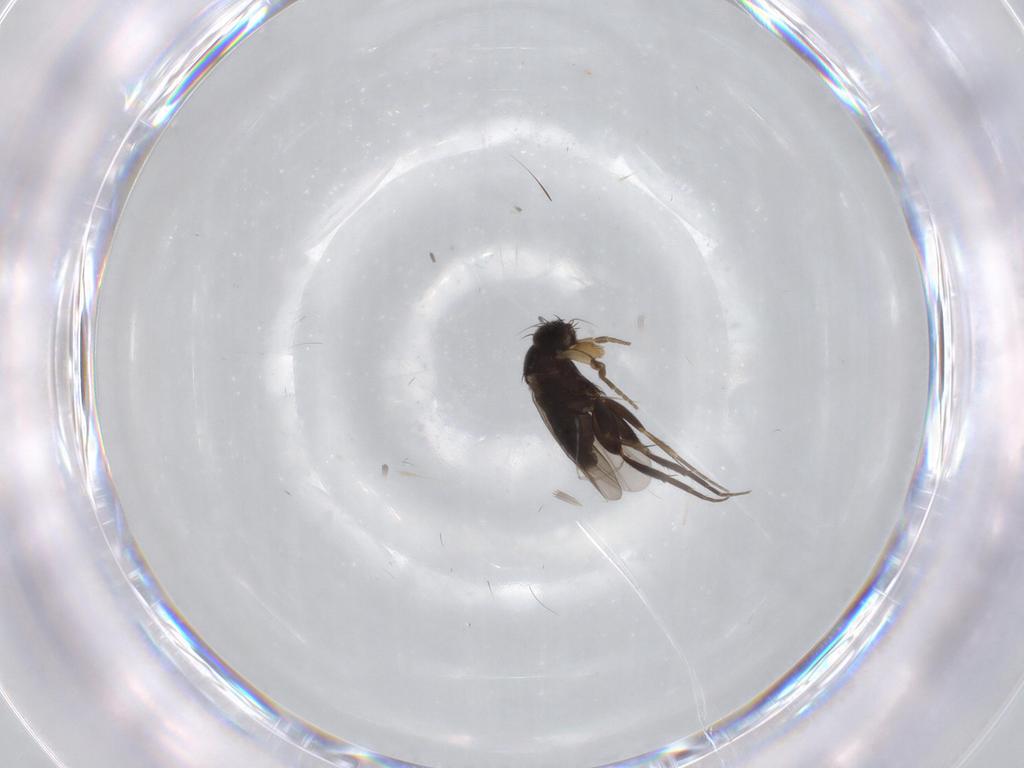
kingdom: Animalia
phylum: Arthropoda
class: Insecta
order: Diptera
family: Phoridae
